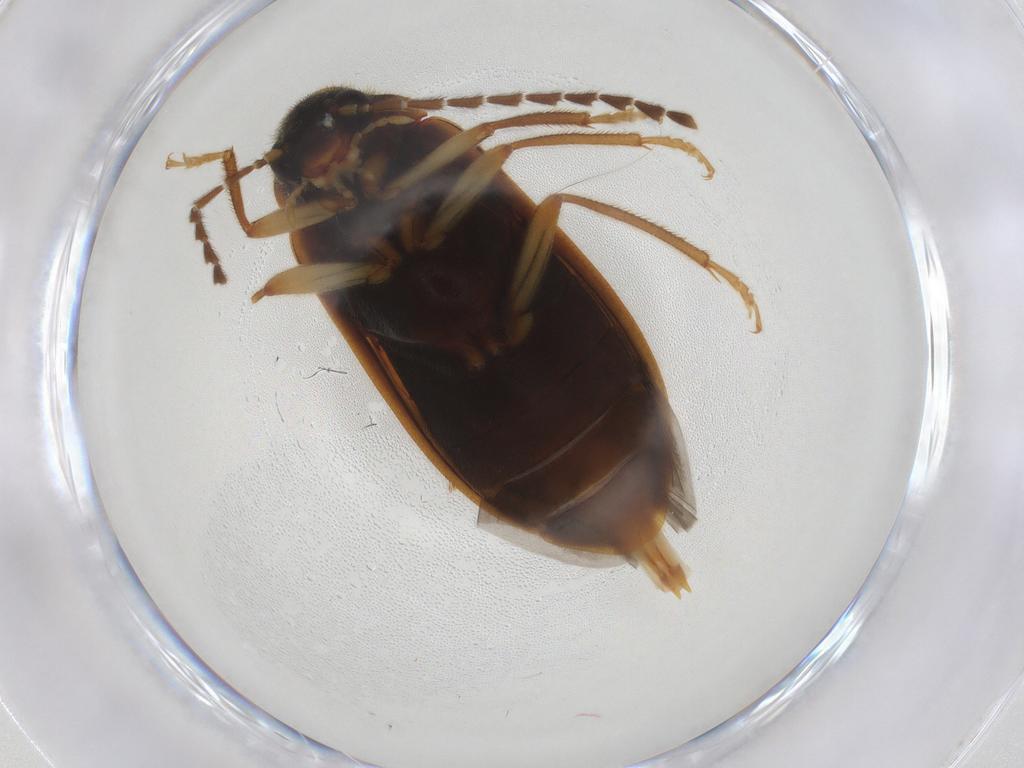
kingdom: Animalia
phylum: Arthropoda
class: Insecta
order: Coleoptera
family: Ptilodactylidae
